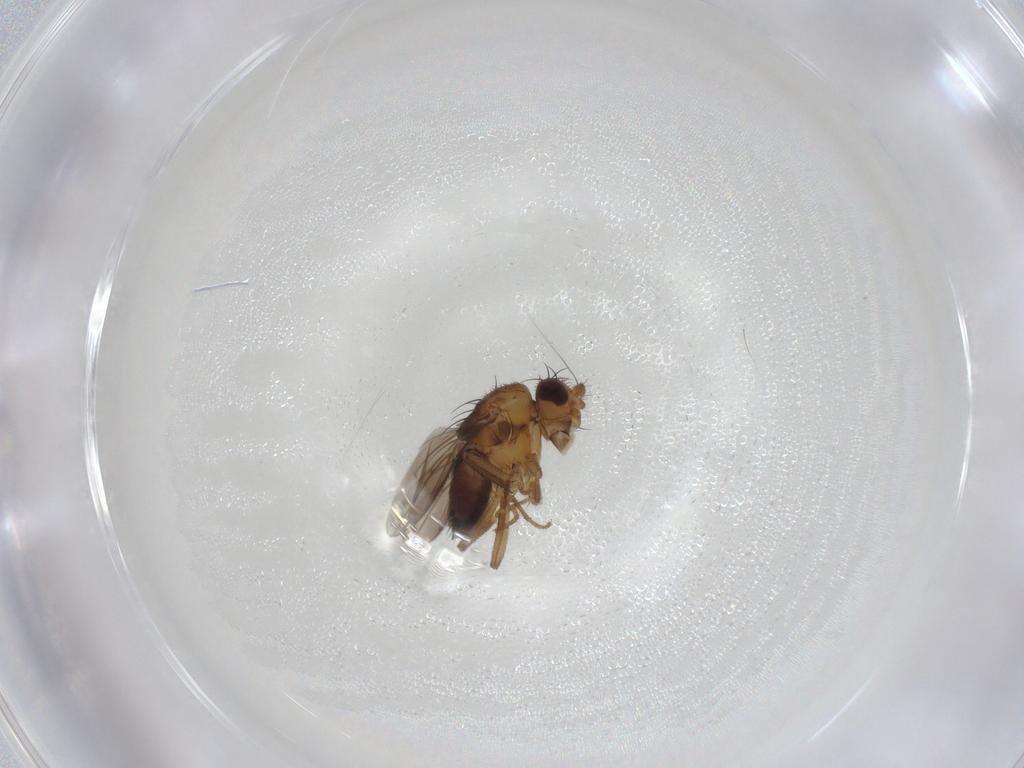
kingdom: Animalia
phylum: Arthropoda
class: Insecta
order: Diptera
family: Sphaeroceridae
